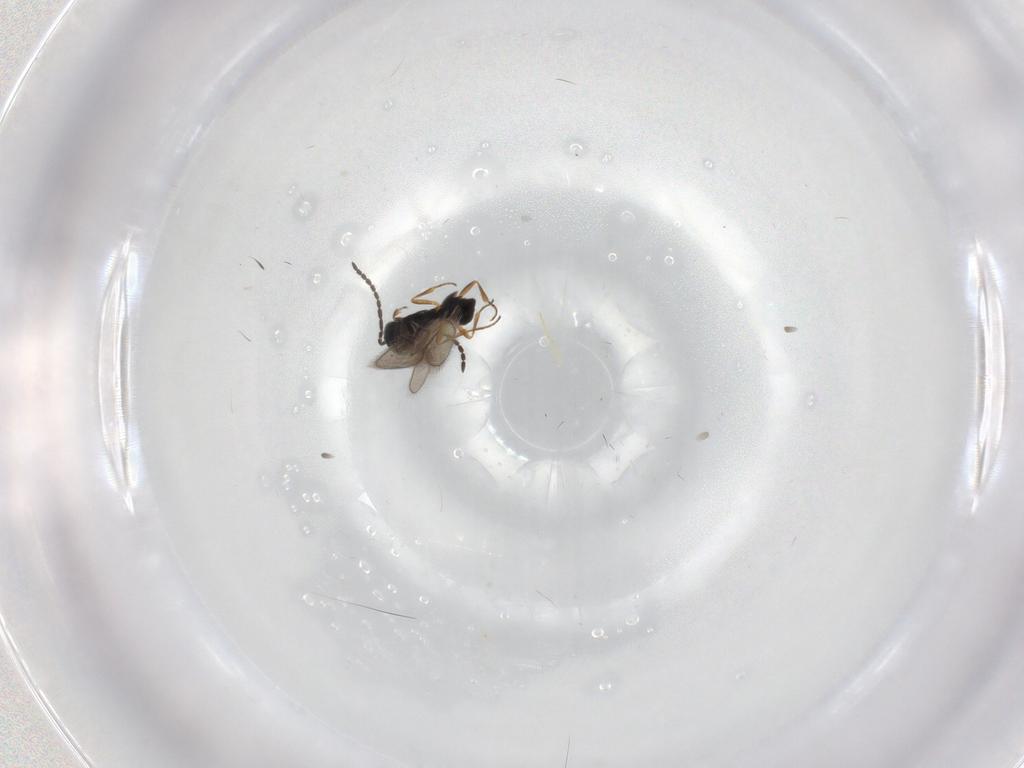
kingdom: Animalia
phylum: Arthropoda
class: Insecta
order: Hymenoptera
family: Scelionidae
